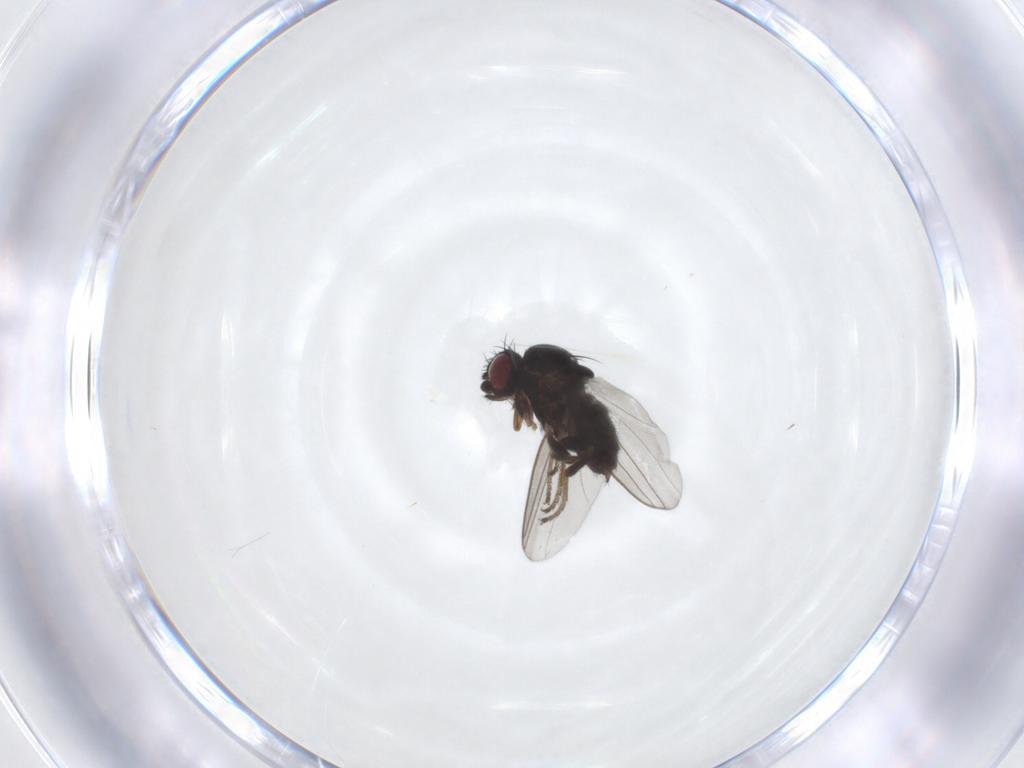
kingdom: Animalia
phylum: Arthropoda
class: Insecta
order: Diptera
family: Milichiidae
